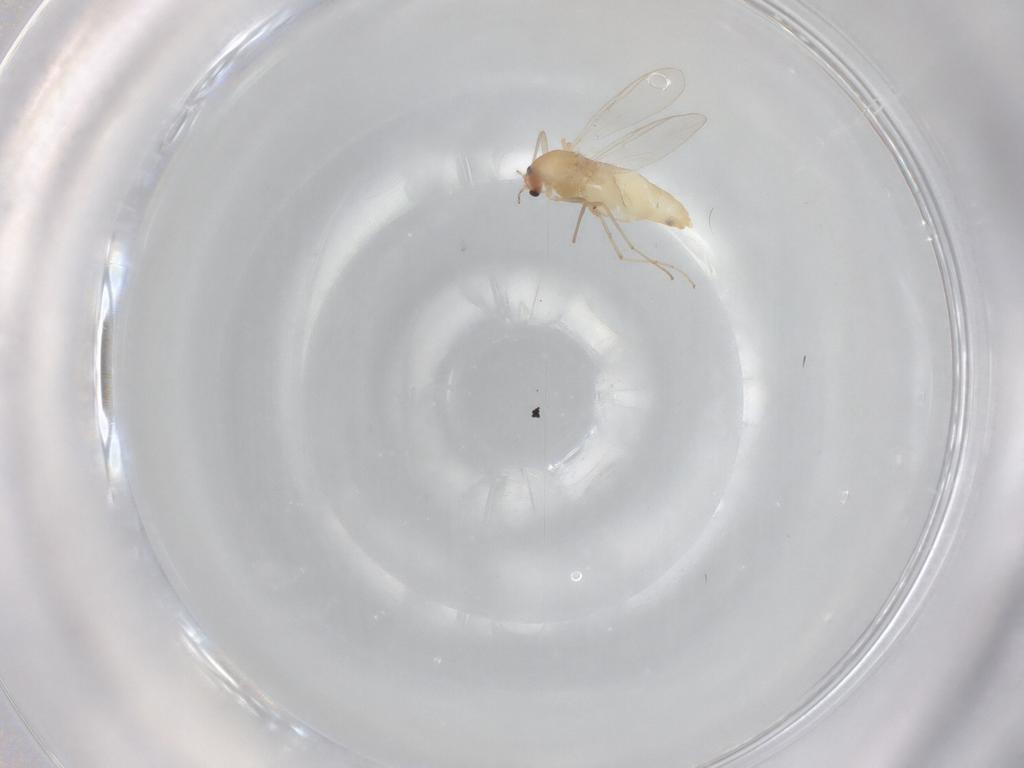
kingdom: Animalia
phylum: Arthropoda
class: Insecta
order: Diptera
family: Chironomidae
